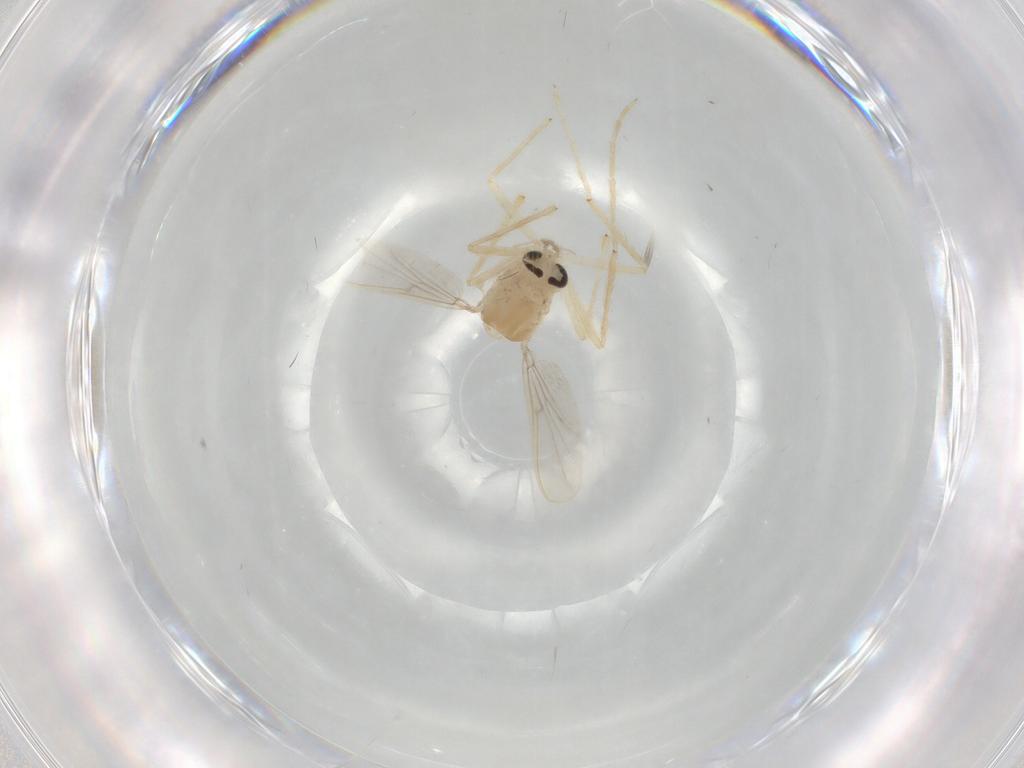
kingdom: Animalia
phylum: Arthropoda
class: Insecta
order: Diptera
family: Chironomidae
